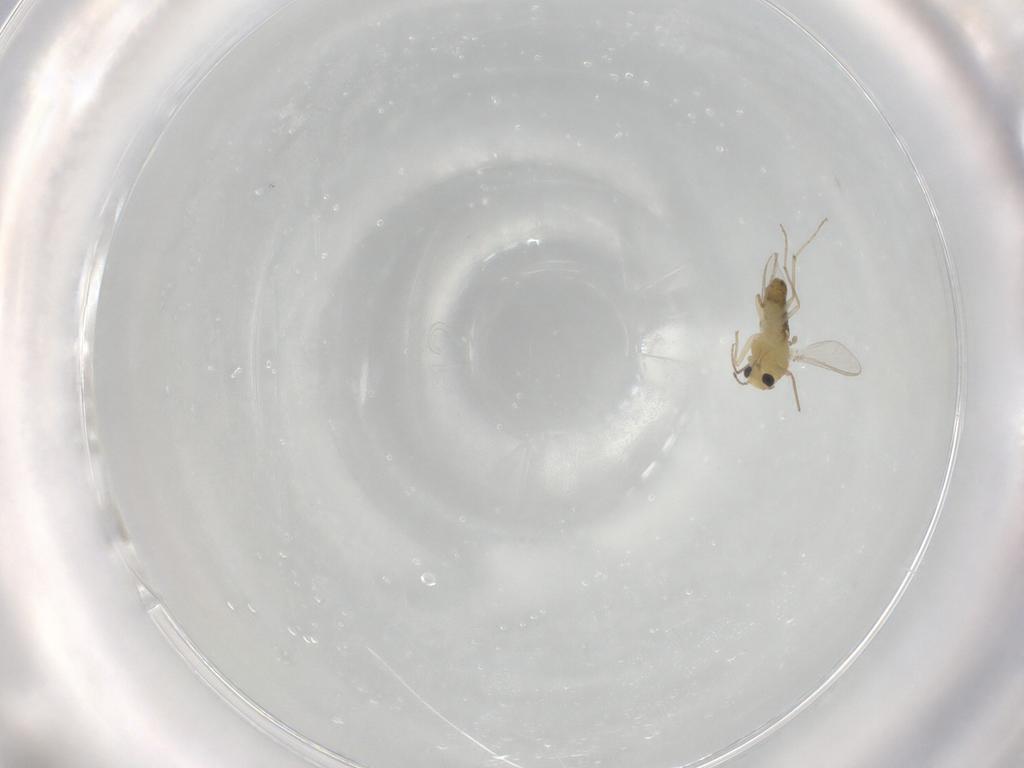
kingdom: Animalia
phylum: Arthropoda
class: Insecta
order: Diptera
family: Chironomidae
